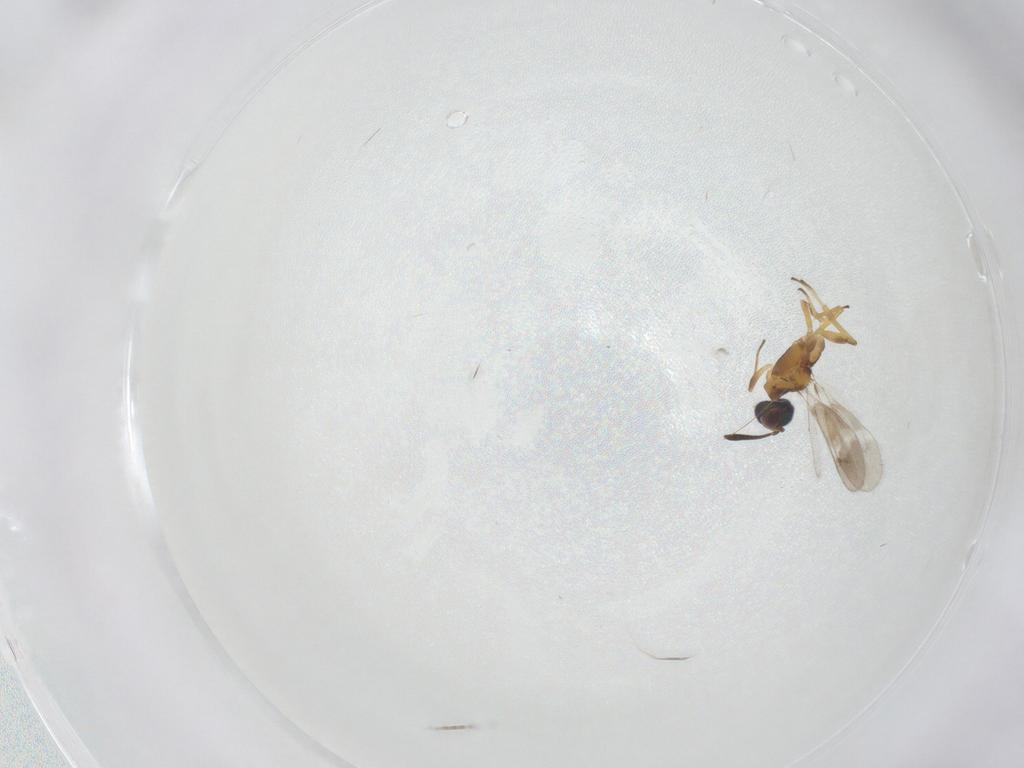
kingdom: Animalia
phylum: Arthropoda
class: Insecta
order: Hymenoptera
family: Eupelmidae
